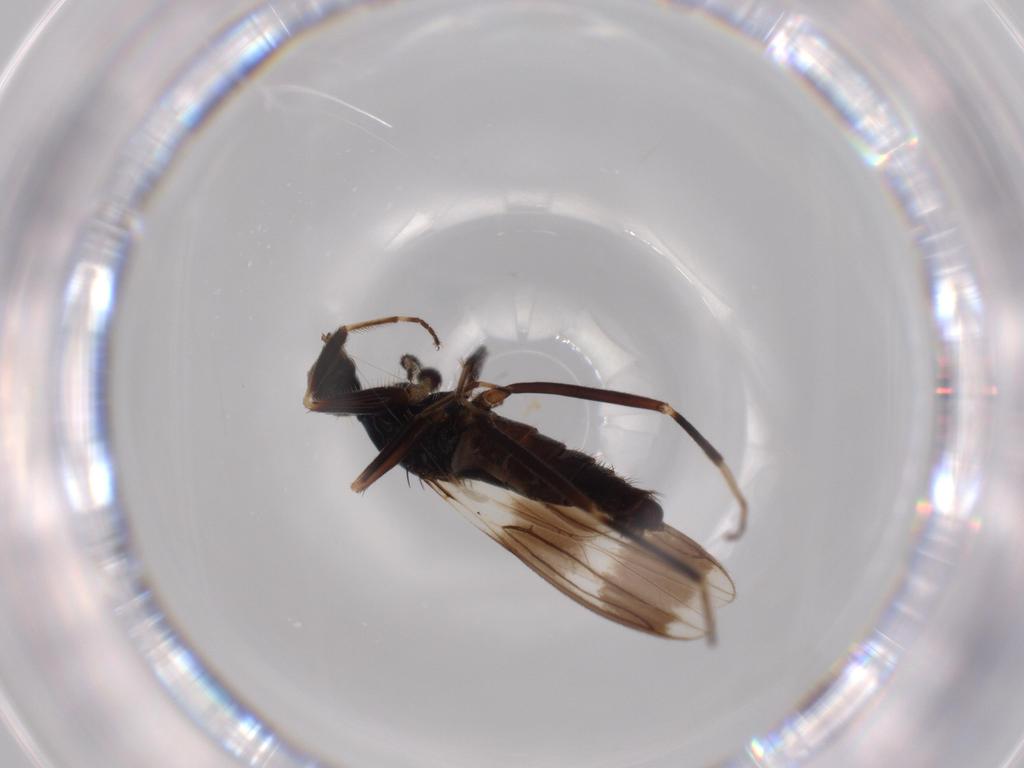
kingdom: Animalia
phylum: Arthropoda
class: Insecta
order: Diptera
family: Hybotidae
